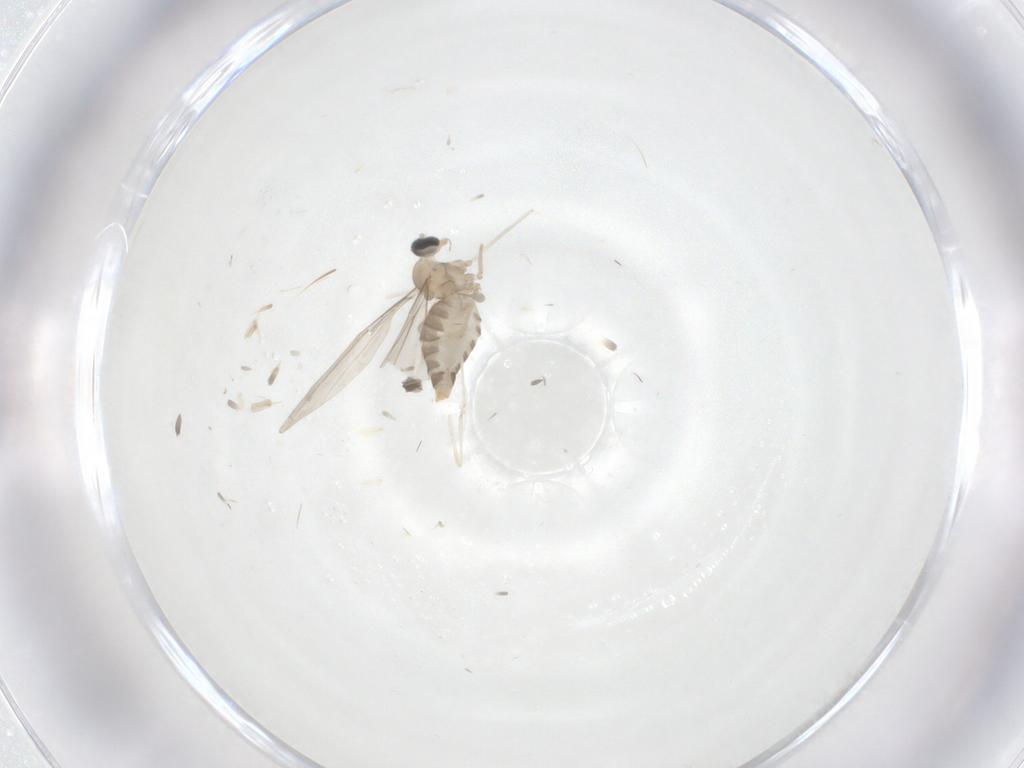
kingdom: Animalia
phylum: Arthropoda
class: Insecta
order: Diptera
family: Cecidomyiidae
